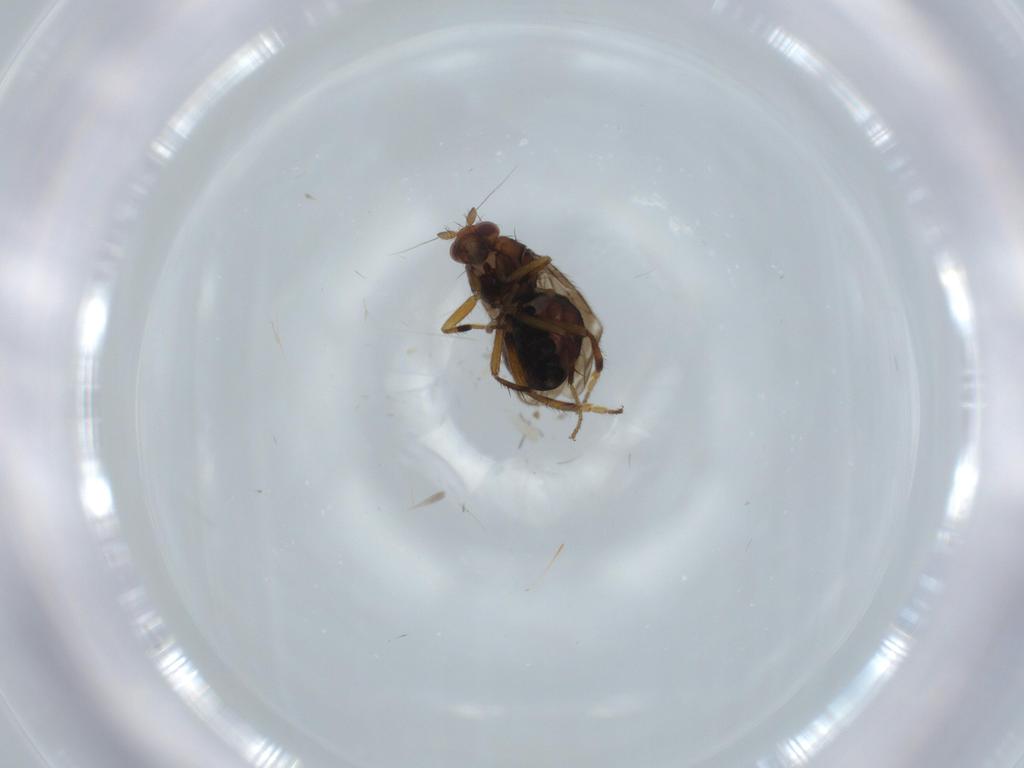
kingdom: Animalia
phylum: Arthropoda
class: Insecta
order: Diptera
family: Sphaeroceridae
